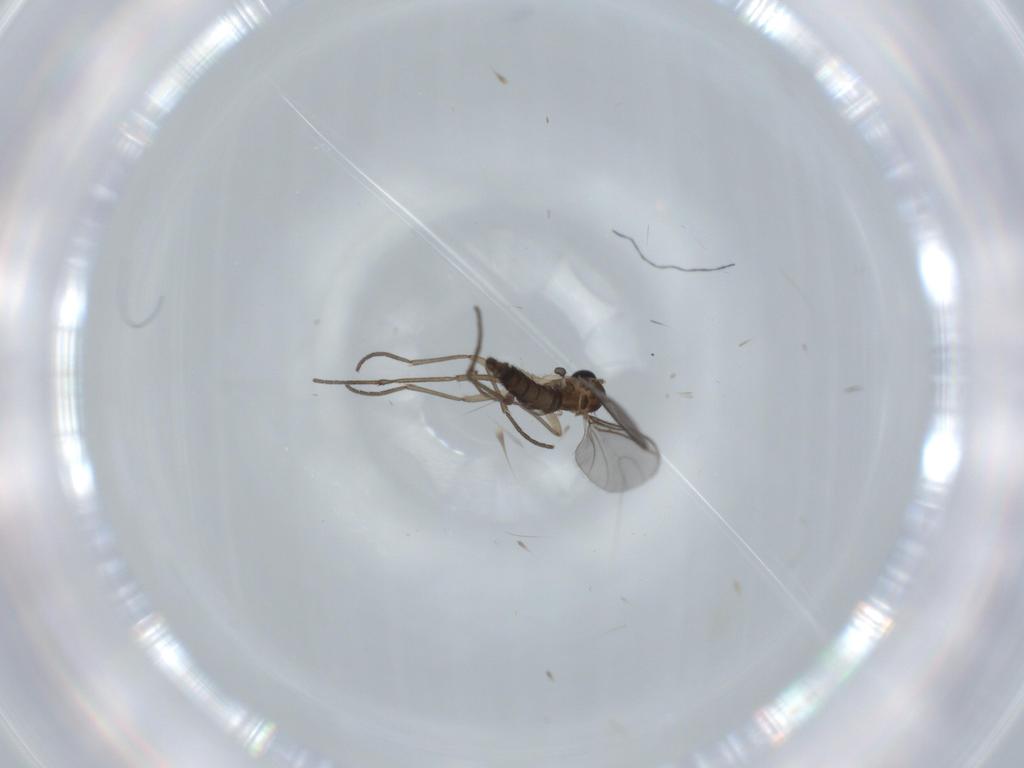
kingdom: Animalia
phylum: Arthropoda
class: Insecta
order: Diptera
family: Sciaridae
